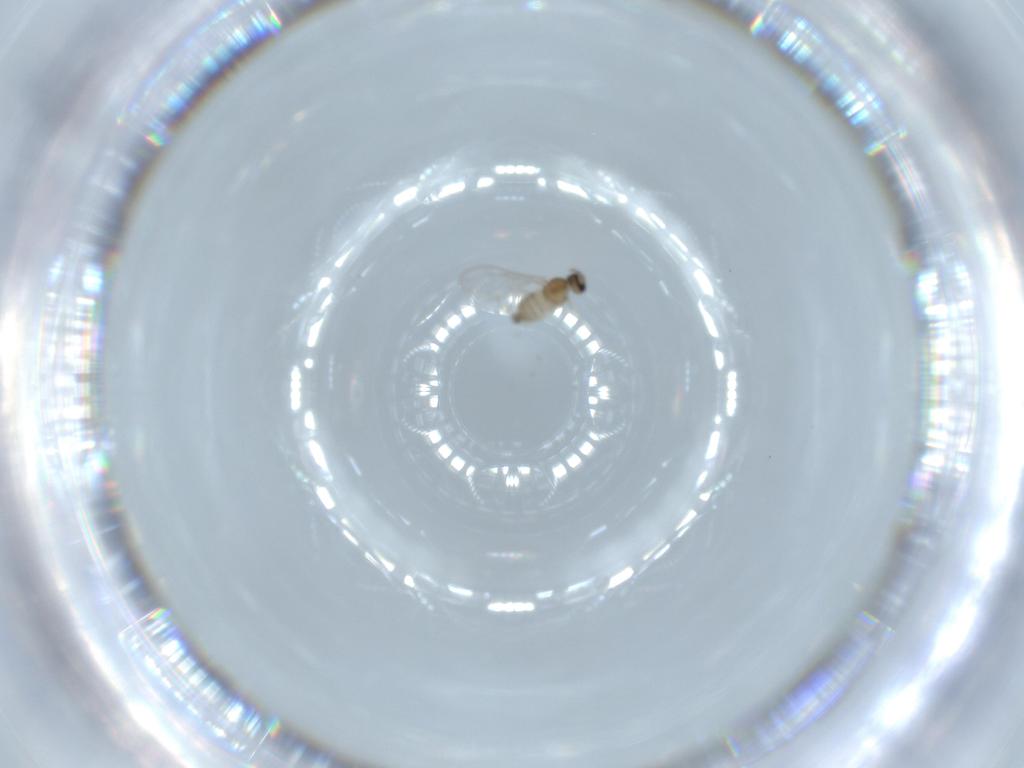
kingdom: Animalia
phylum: Arthropoda
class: Insecta
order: Diptera
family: Cecidomyiidae
